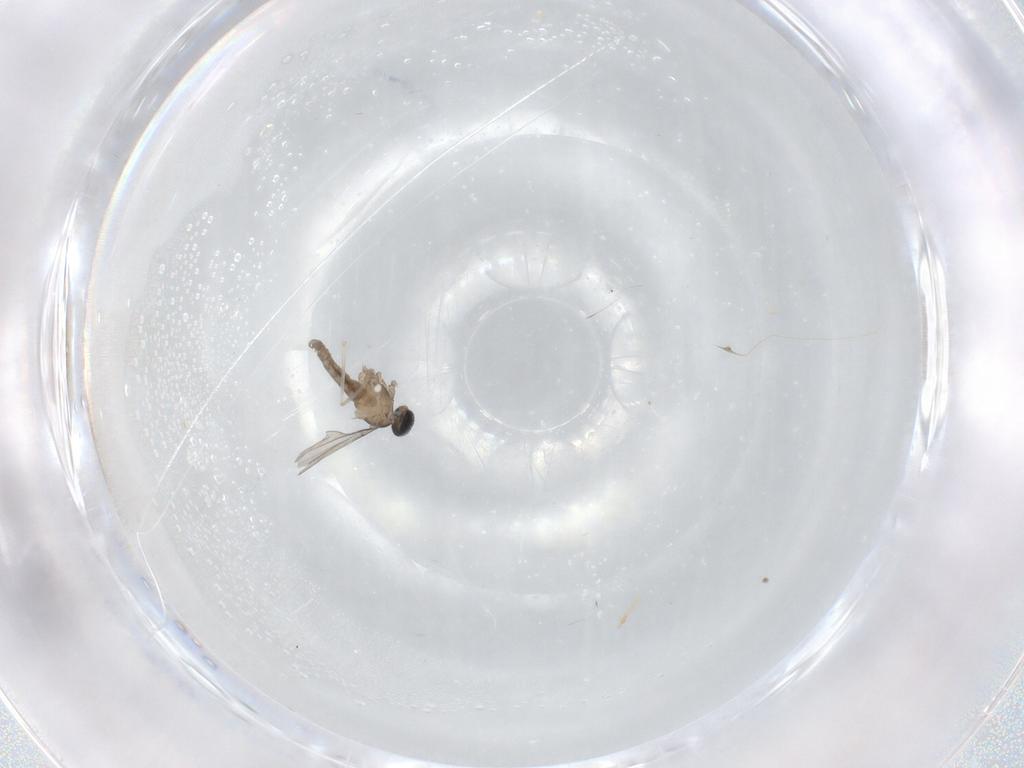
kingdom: Animalia
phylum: Arthropoda
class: Insecta
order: Diptera
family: Cecidomyiidae
